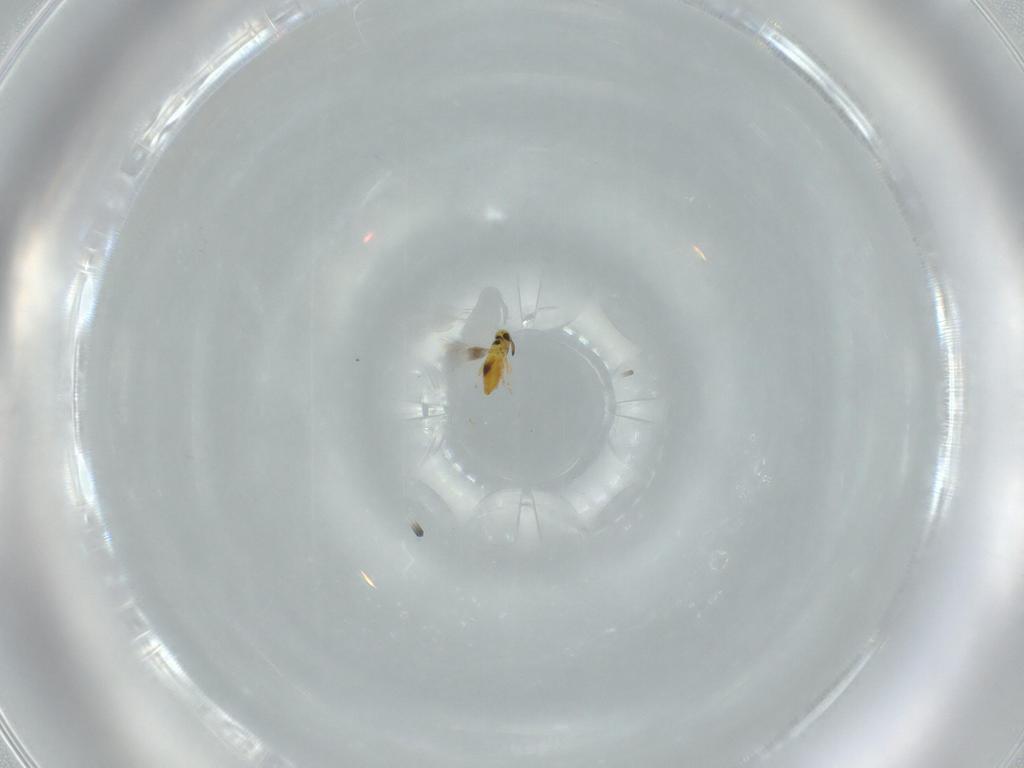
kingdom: Animalia
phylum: Arthropoda
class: Insecta
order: Hymenoptera
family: Signiphoridae
